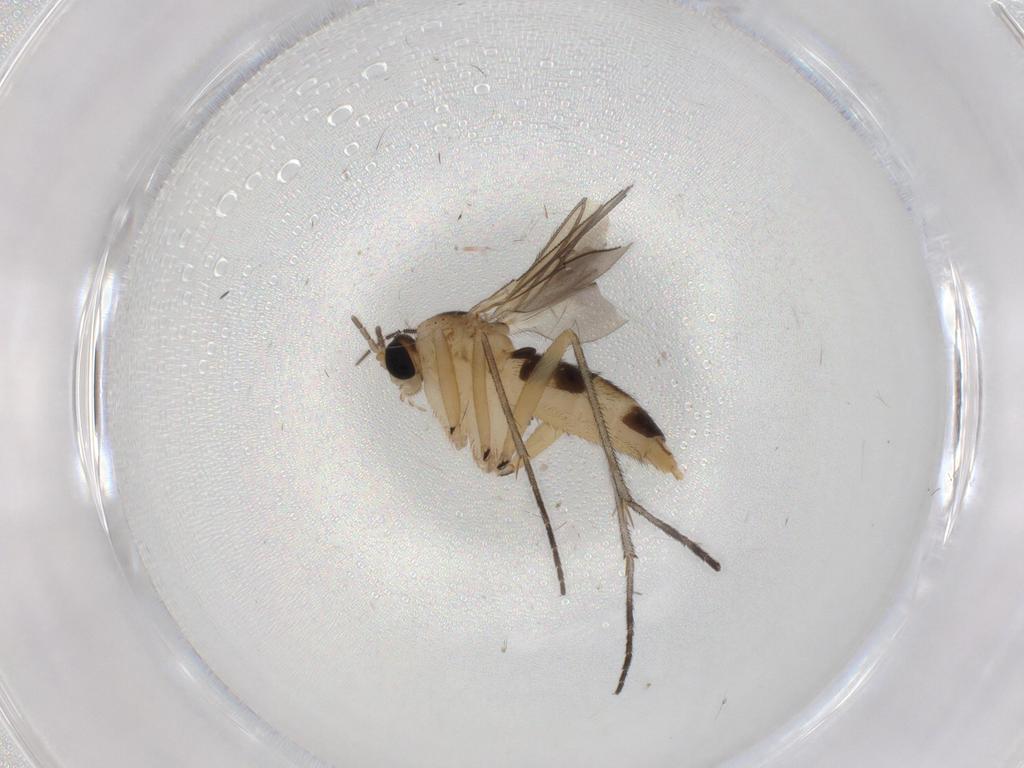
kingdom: Animalia
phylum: Arthropoda
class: Insecta
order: Diptera
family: Sciaridae
